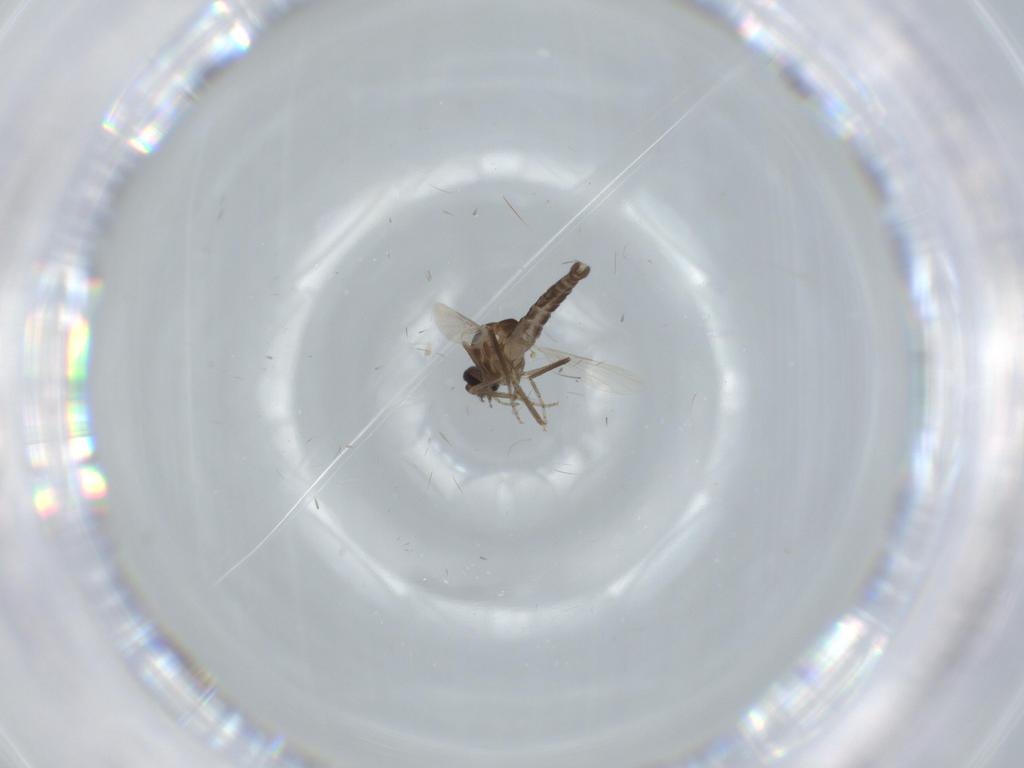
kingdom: Animalia
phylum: Arthropoda
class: Insecta
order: Diptera
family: Ceratopogonidae
